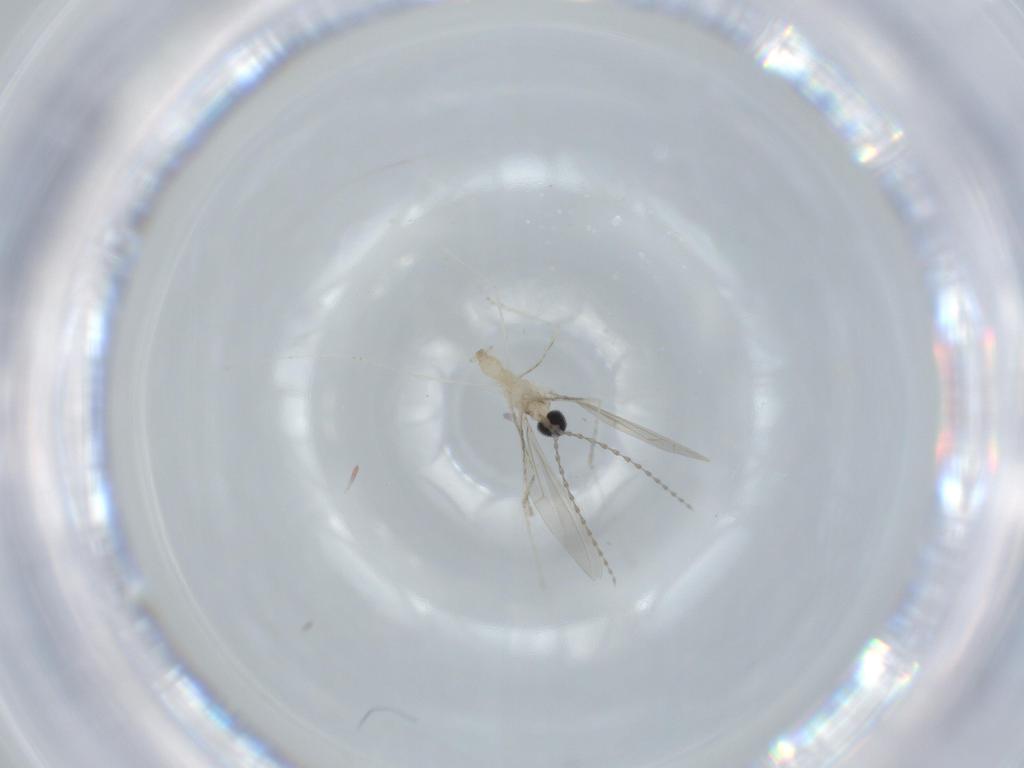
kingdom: Animalia
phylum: Arthropoda
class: Insecta
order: Diptera
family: Cecidomyiidae
